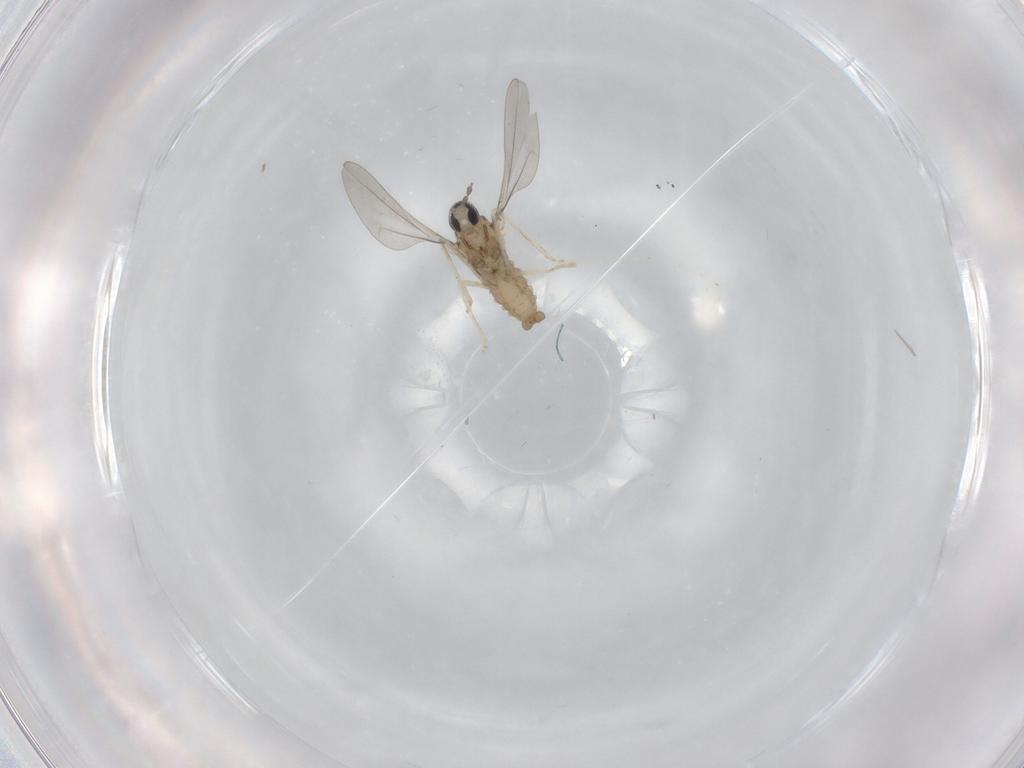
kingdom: Animalia
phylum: Arthropoda
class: Insecta
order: Diptera
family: Cecidomyiidae
